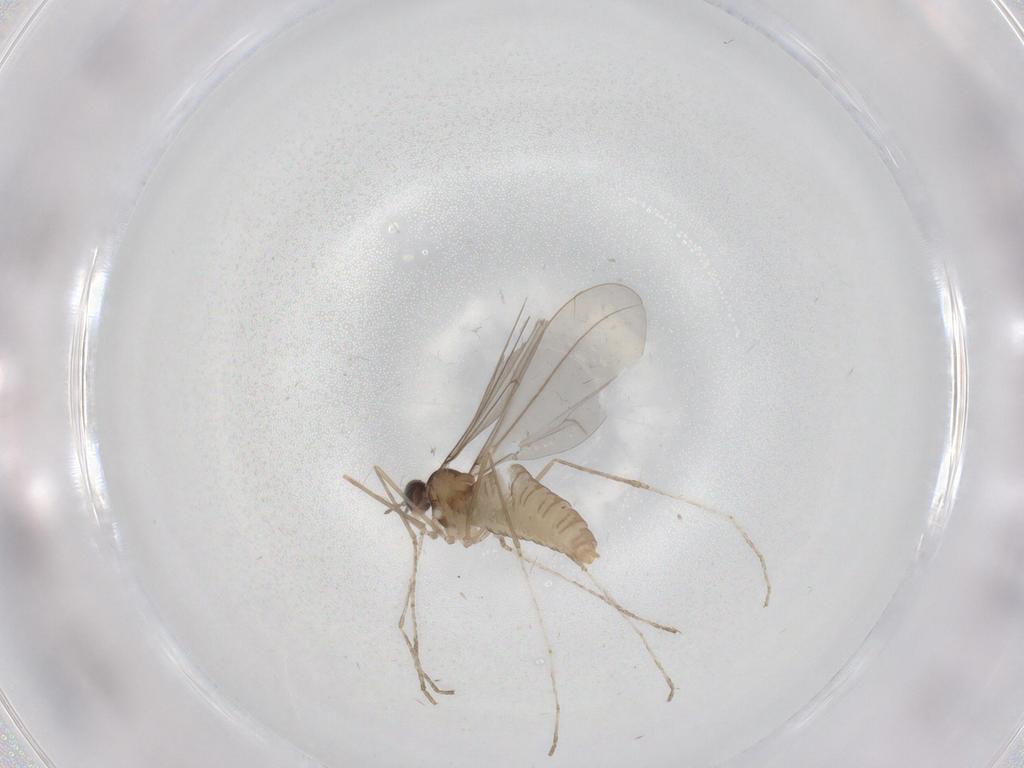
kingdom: Animalia
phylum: Arthropoda
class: Insecta
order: Diptera
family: Cecidomyiidae
